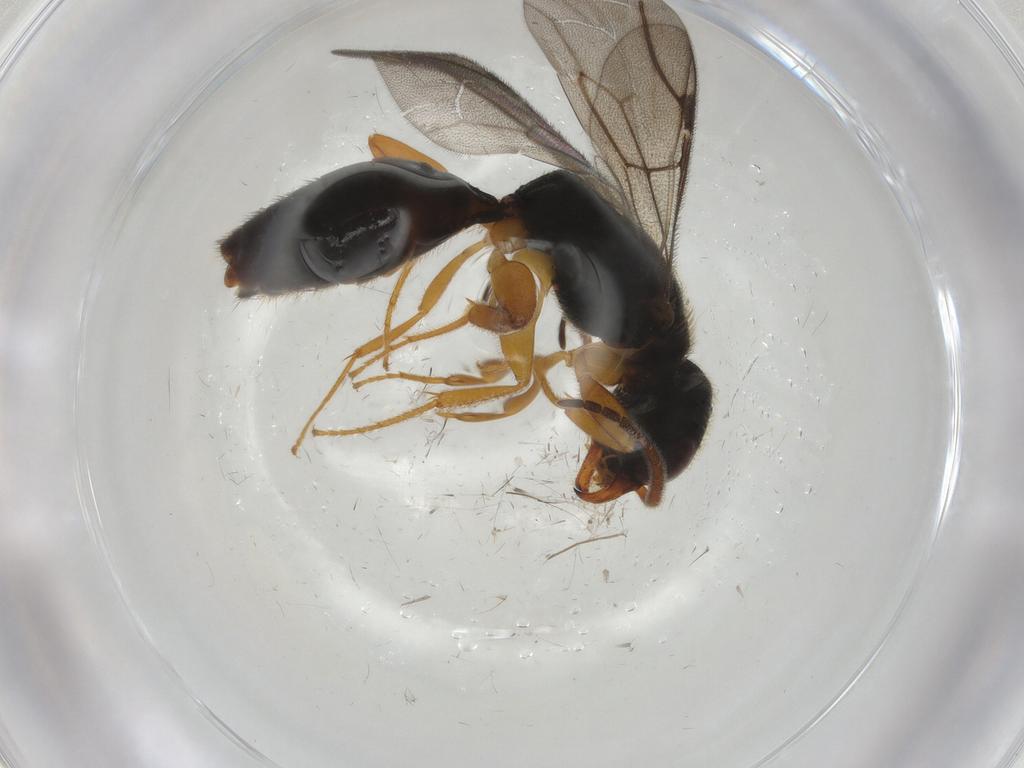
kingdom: Animalia
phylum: Arthropoda
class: Insecta
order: Hymenoptera
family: Bethylidae
